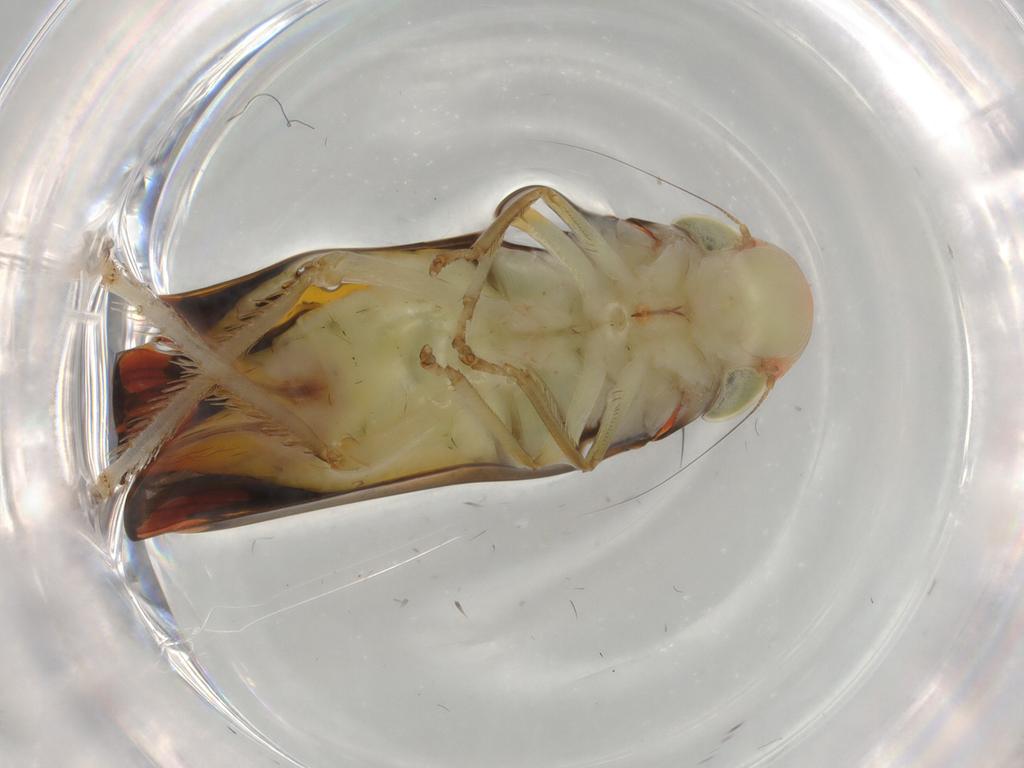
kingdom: Animalia
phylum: Arthropoda
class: Insecta
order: Hemiptera
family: Cicadellidae
